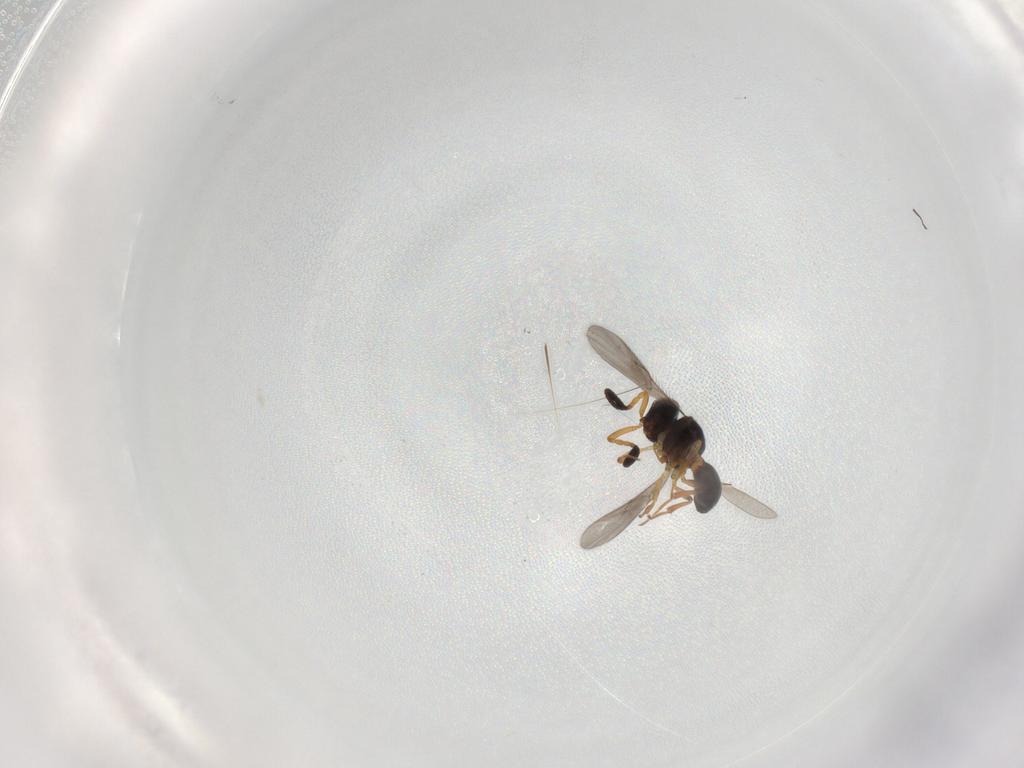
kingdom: Animalia
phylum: Arthropoda
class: Insecta
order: Hymenoptera
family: Scelionidae
